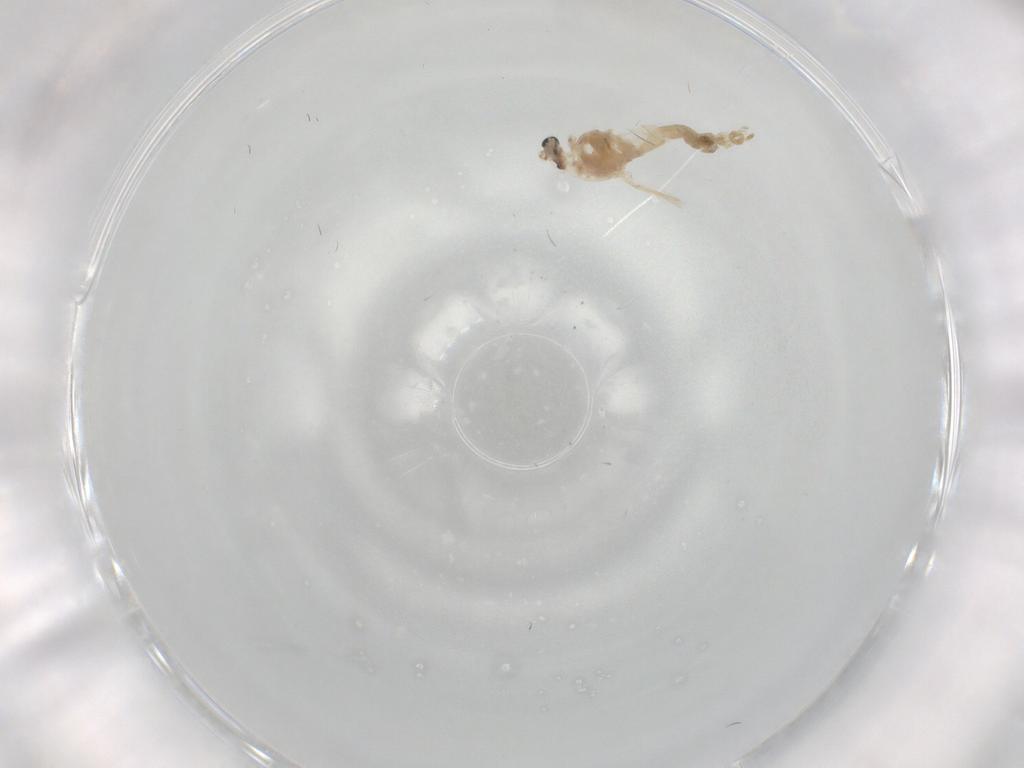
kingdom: Animalia
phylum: Arthropoda
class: Insecta
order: Diptera
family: Chironomidae
